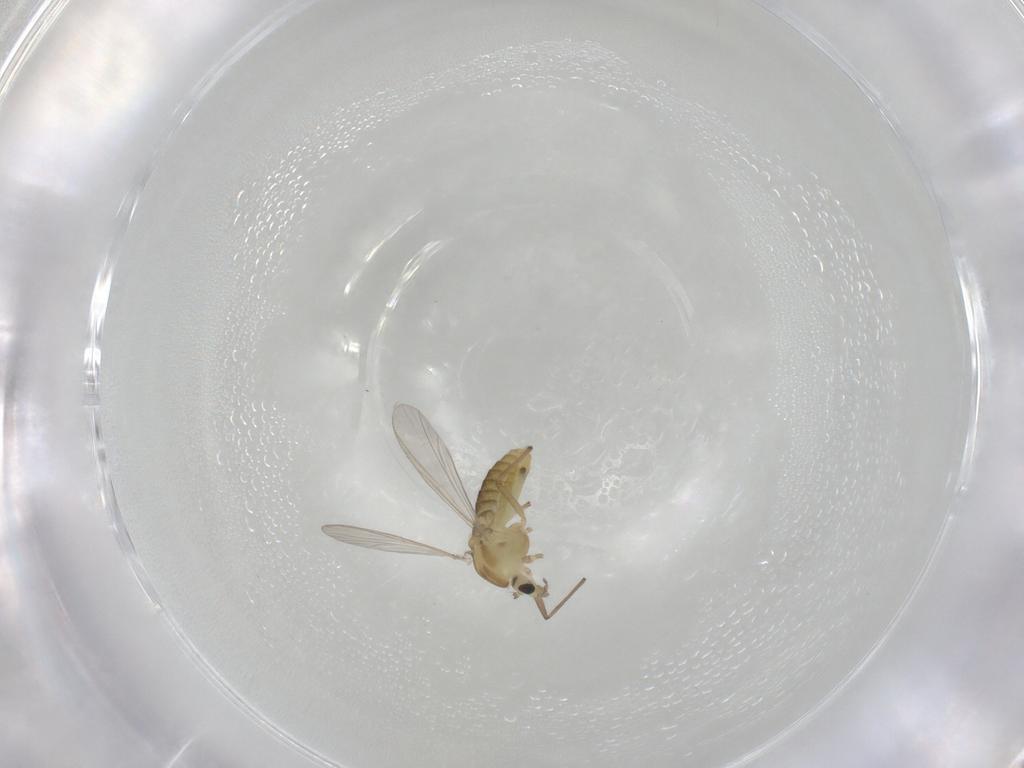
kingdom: Animalia
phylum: Arthropoda
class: Insecta
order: Diptera
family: Chironomidae
